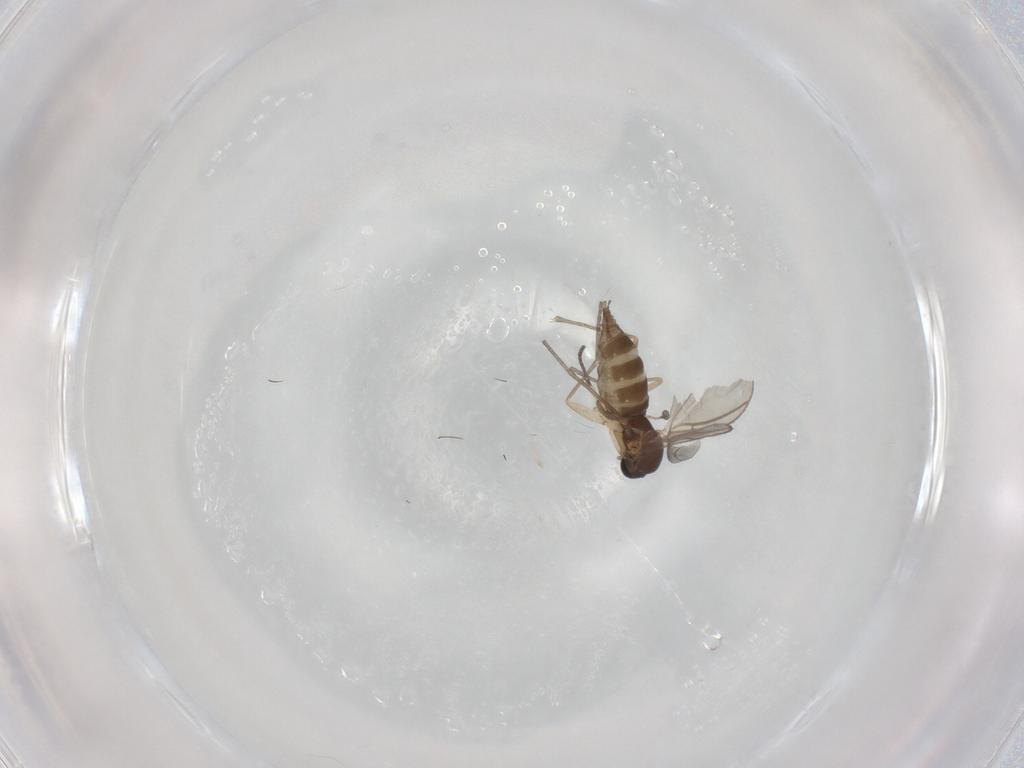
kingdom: Animalia
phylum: Arthropoda
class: Insecta
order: Diptera
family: Sciaridae
